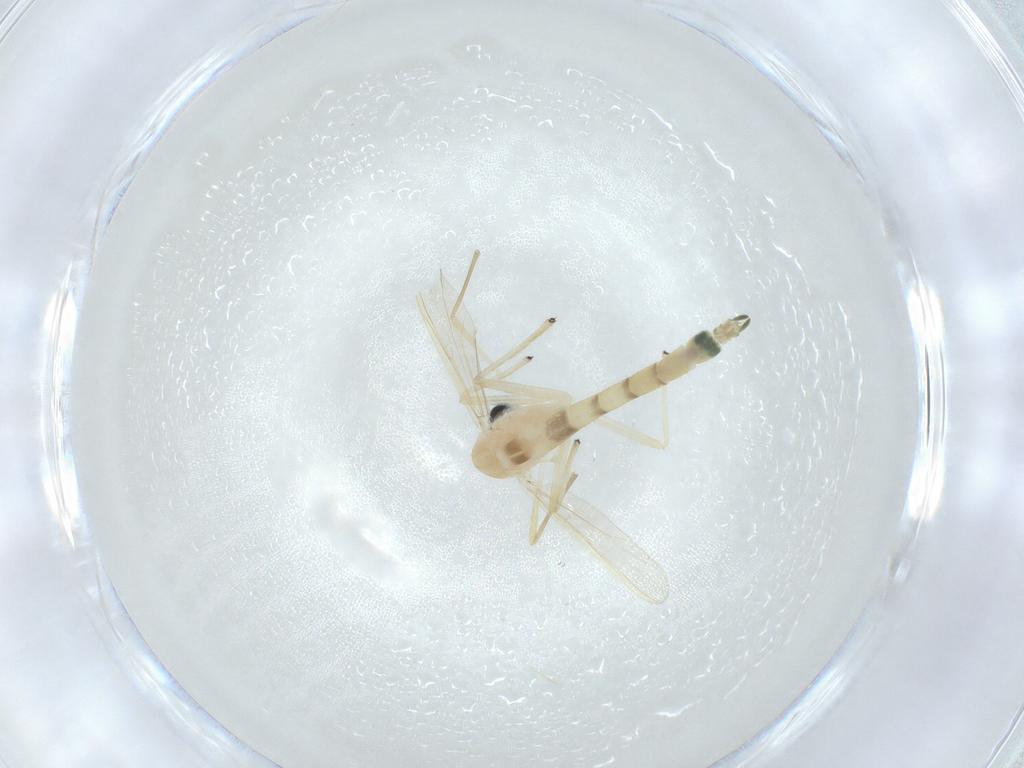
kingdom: Animalia
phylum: Arthropoda
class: Insecta
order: Diptera
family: Chironomidae
